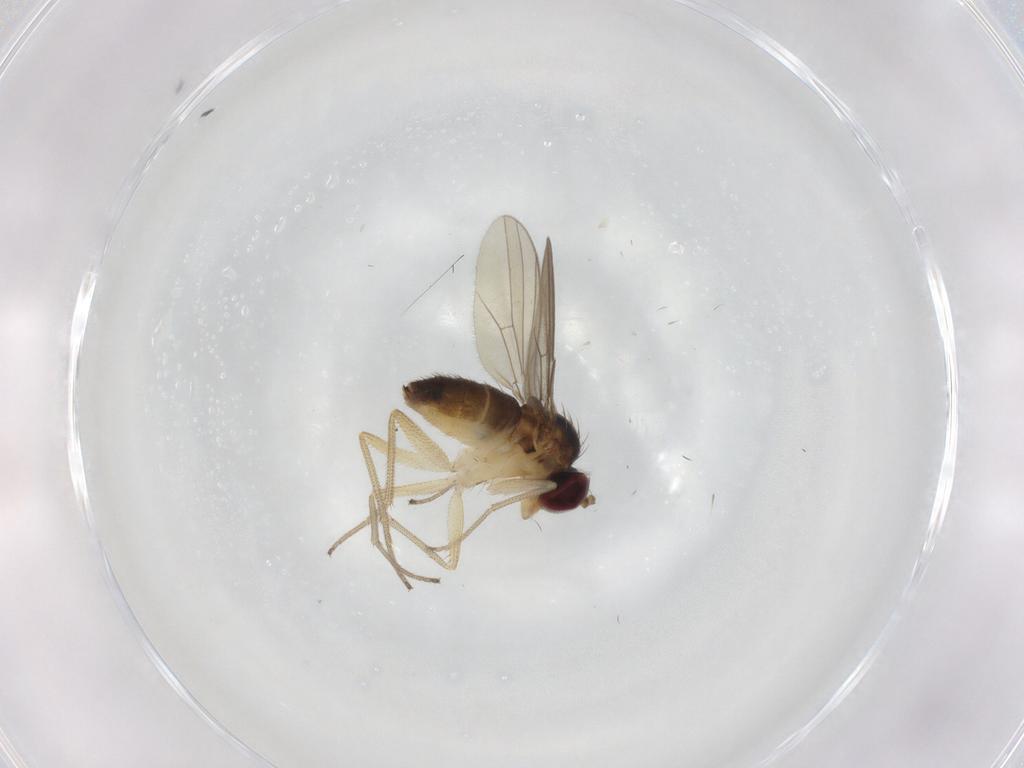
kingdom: Animalia
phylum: Arthropoda
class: Insecta
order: Diptera
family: Dolichopodidae
